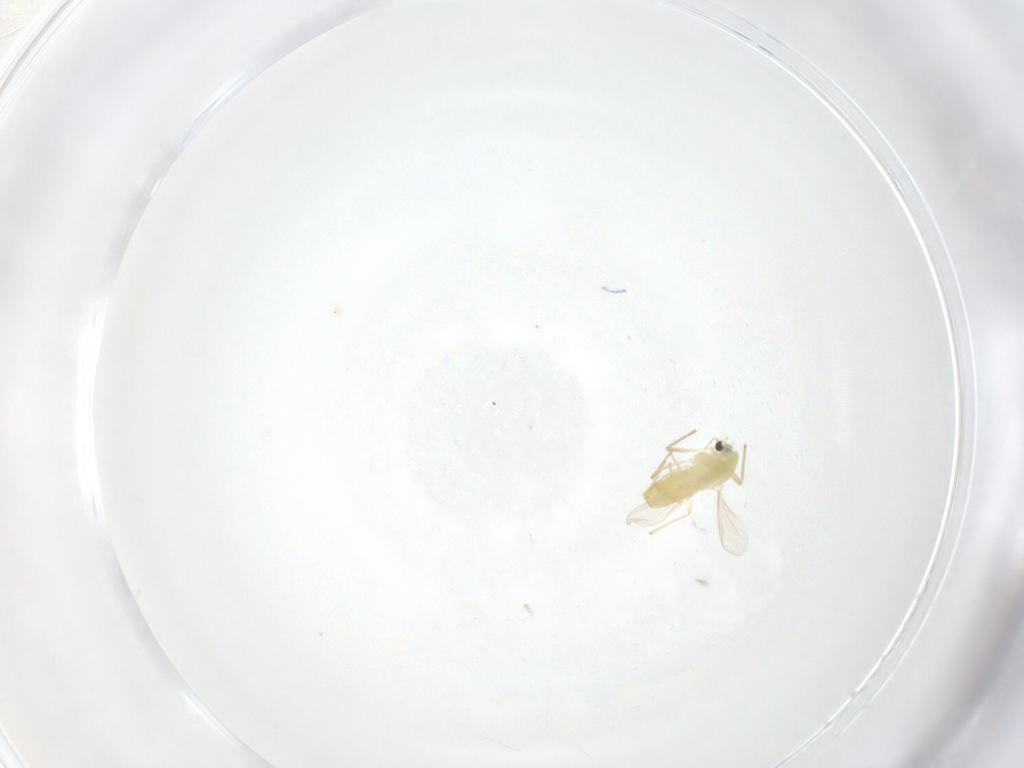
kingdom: Animalia
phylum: Arthropoda
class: Insecta
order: Diptera
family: Chironomidae
